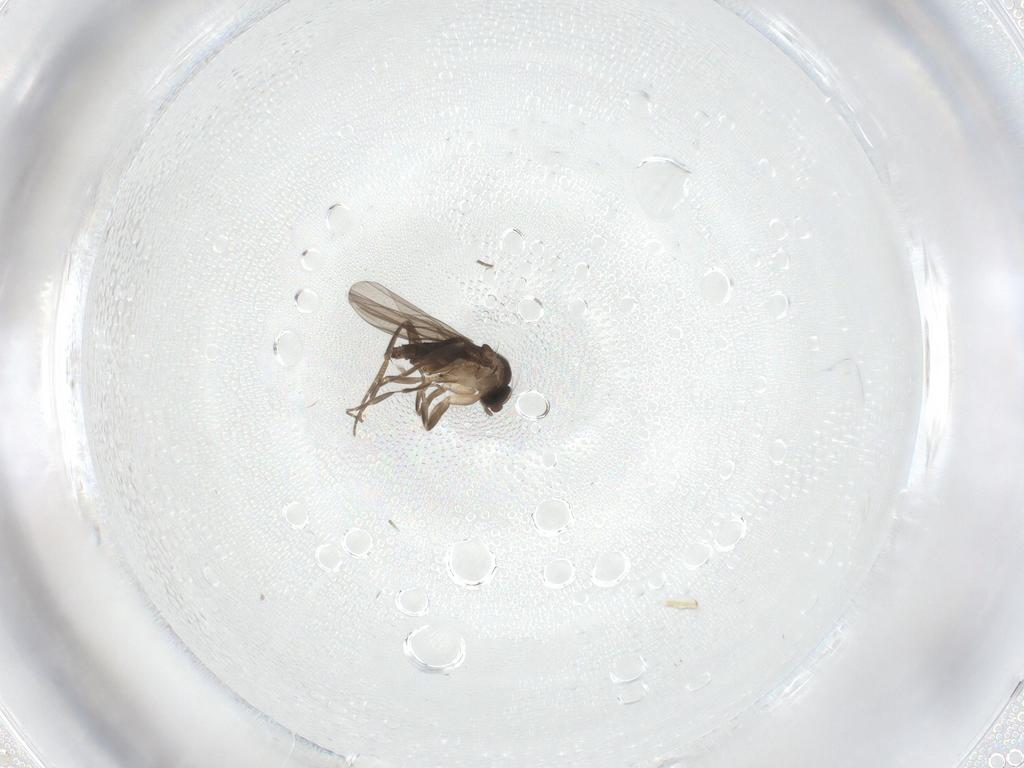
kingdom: Animalia
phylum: Arthropoda
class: Insecta
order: Diptera
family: Phoridae
